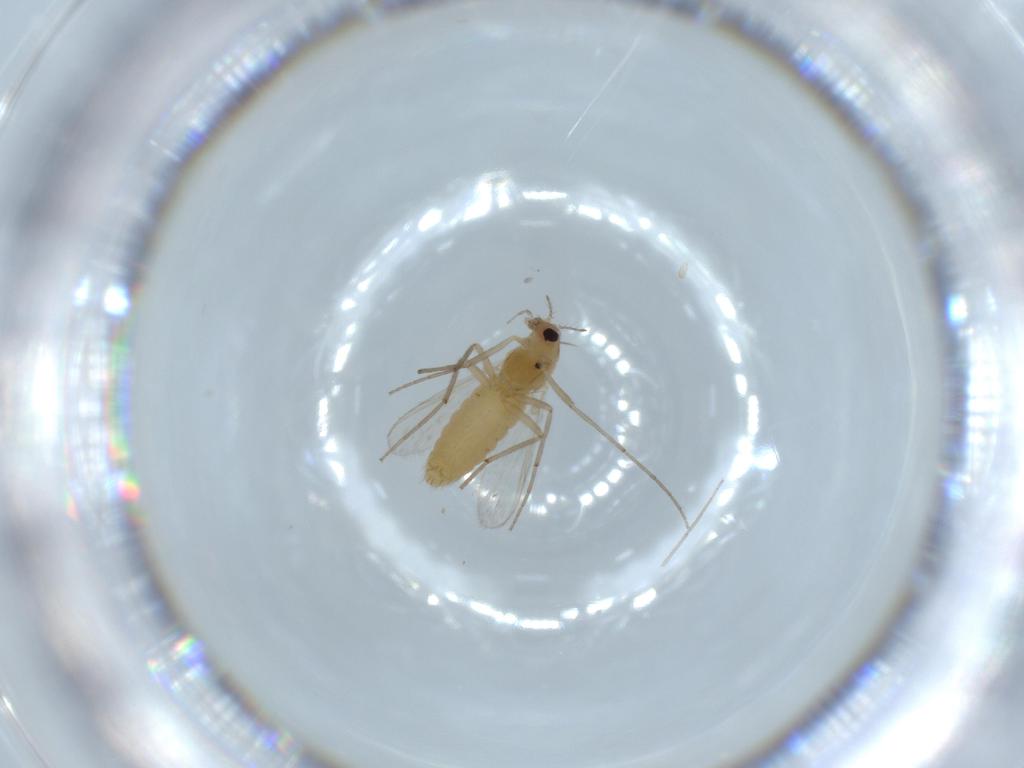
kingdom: Animalia
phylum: Arthropoda
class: Insecta
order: Diptera
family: Chironomidae
